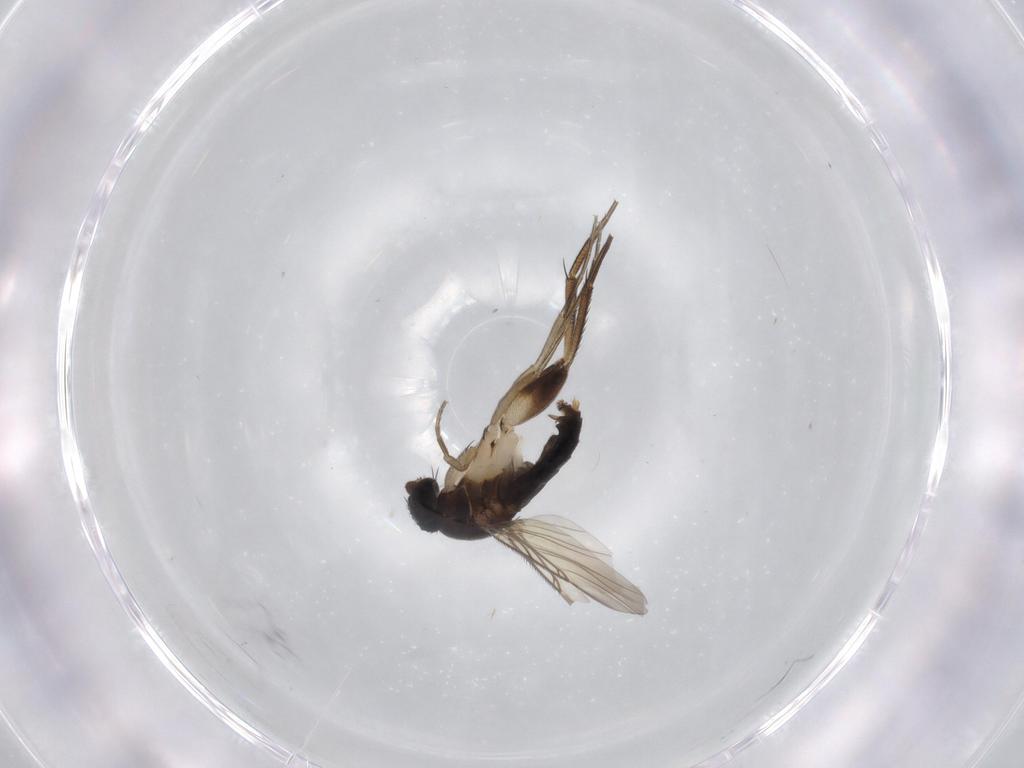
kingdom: Animalia
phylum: Arthropoda
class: Insecta
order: Diptera
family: Phoridae
